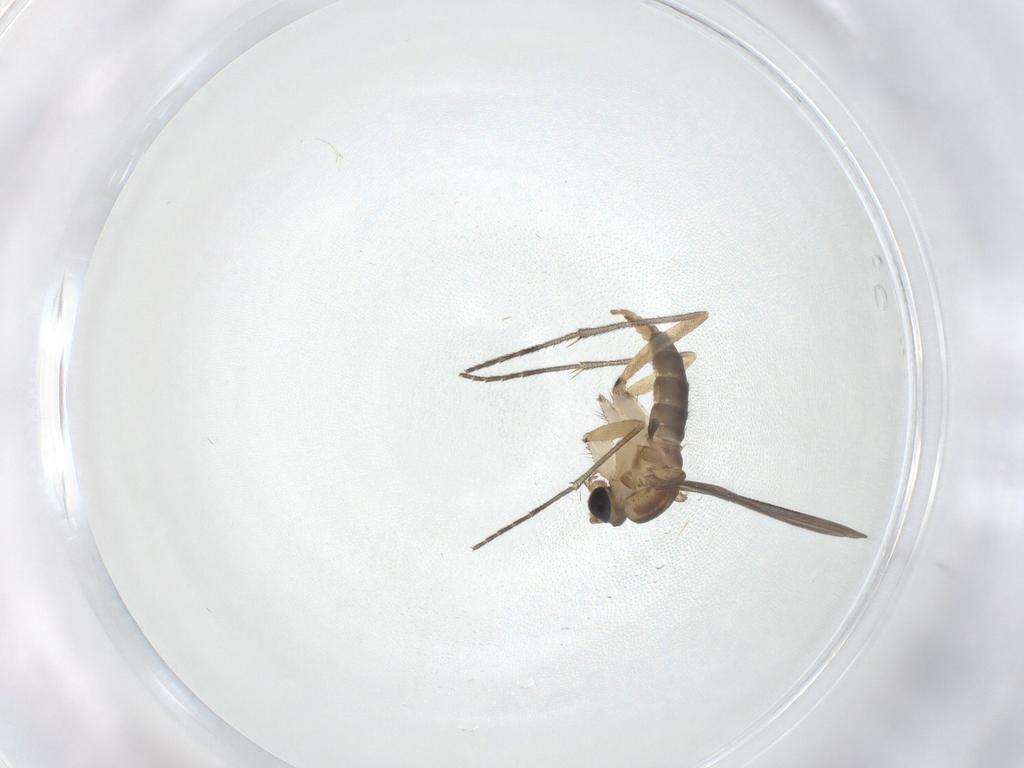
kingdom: Animalia
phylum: Arthropoda
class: Insecta
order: Diptera
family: Sciaridae
